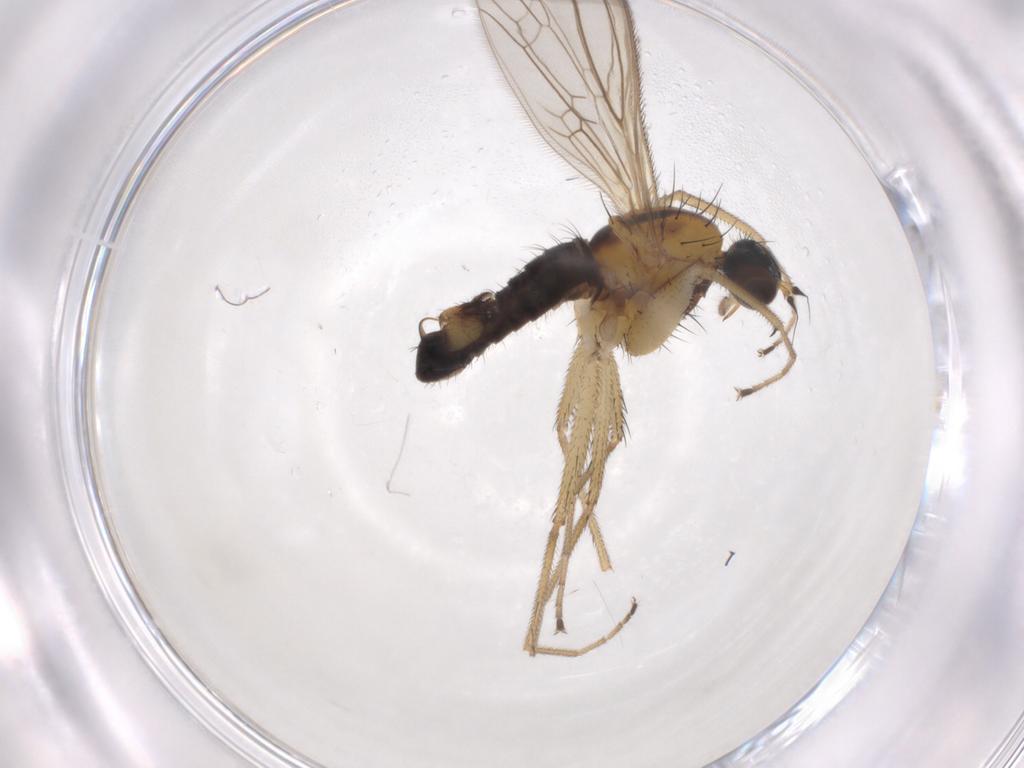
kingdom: Animalia
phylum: Arthropoda
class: Insecta
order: Diptera
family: Empididae
